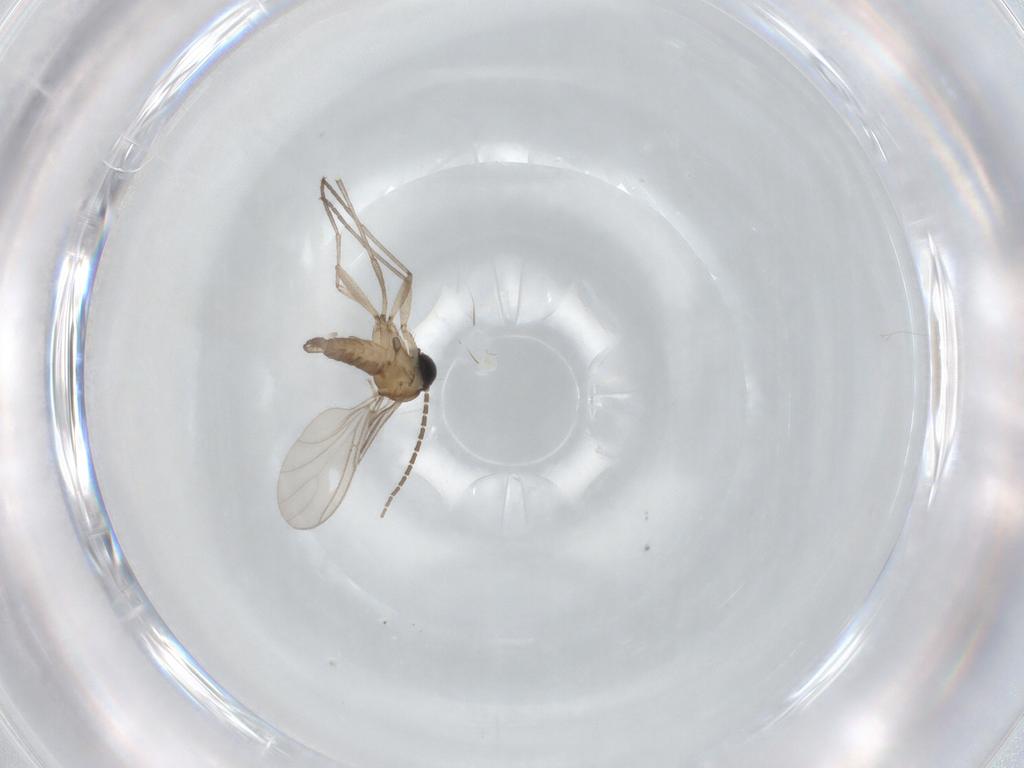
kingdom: Animalia
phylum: Arthropoda
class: Insecta
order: Diptera
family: Sciaridae
